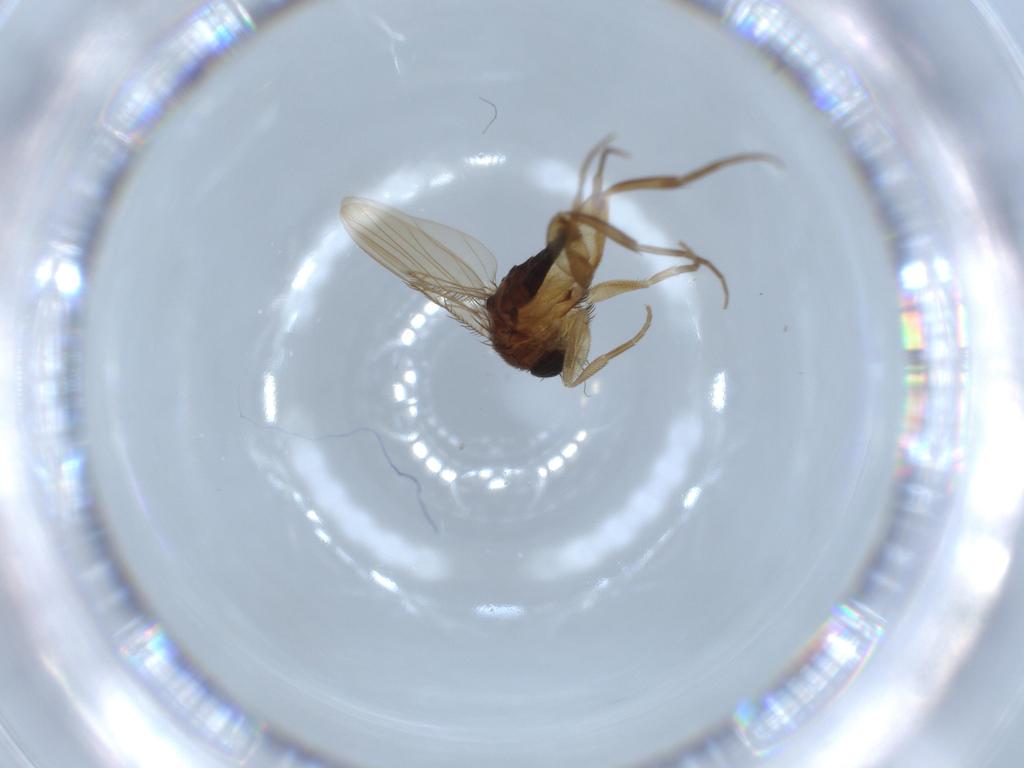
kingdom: Animalia
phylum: Arthropoda
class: Insecta
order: Diptera
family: Phoridae
